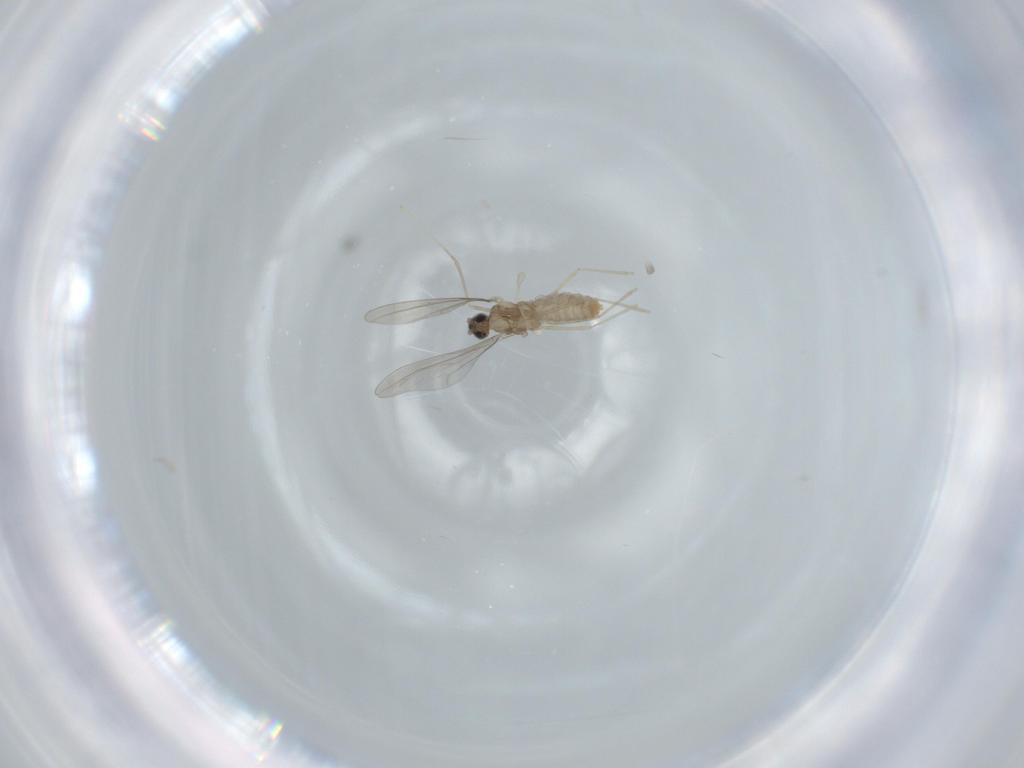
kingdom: Animalia
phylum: Arthropoda
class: Insecta
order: Diptera
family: Cecidomyiidae
